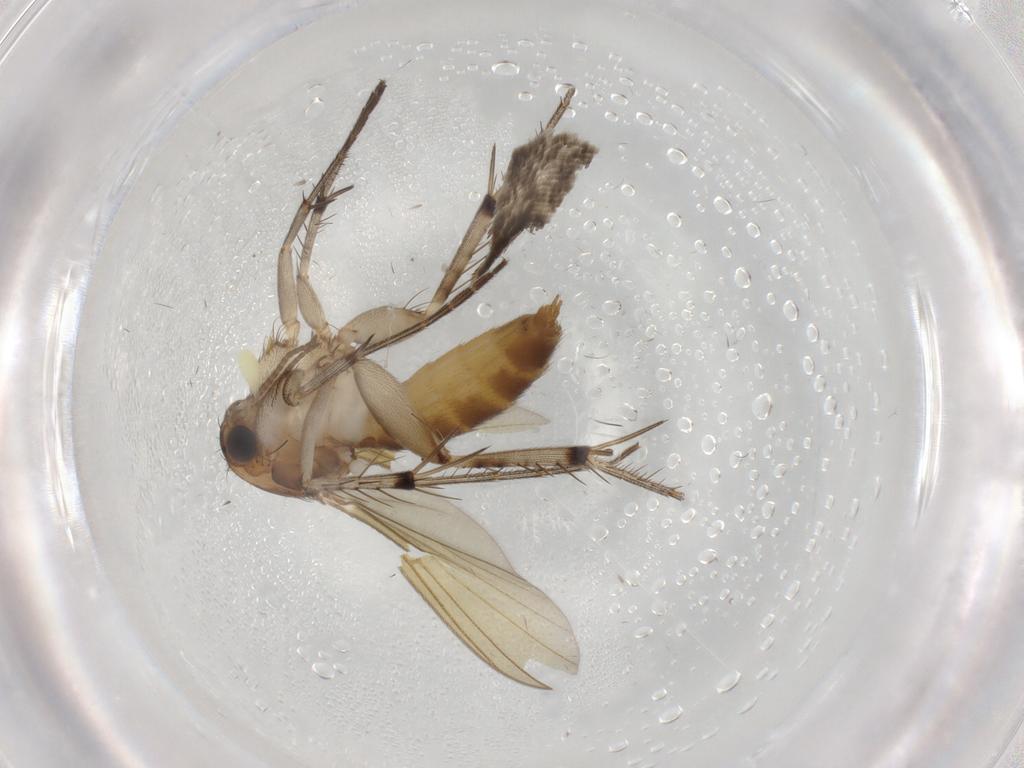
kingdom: Animalia
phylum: Arthropoda
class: Insecta
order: Diptera
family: Mycetophilidae
